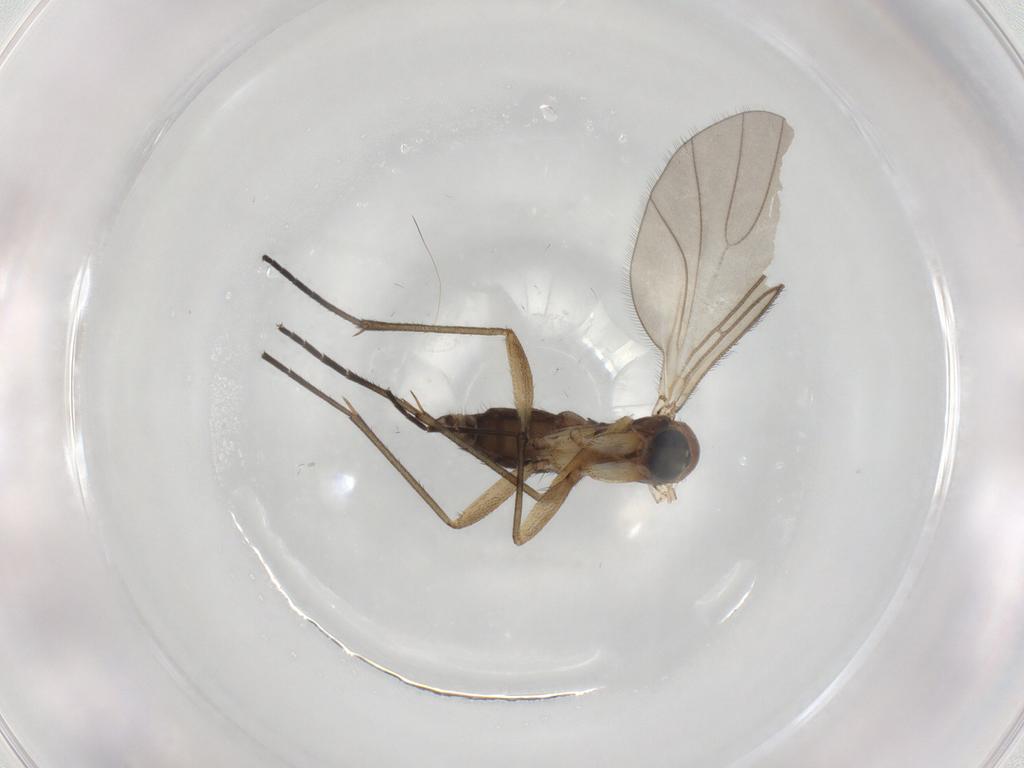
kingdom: Animalia
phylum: Arthropoda
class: Insecta
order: Diptera
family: Sciaridae
